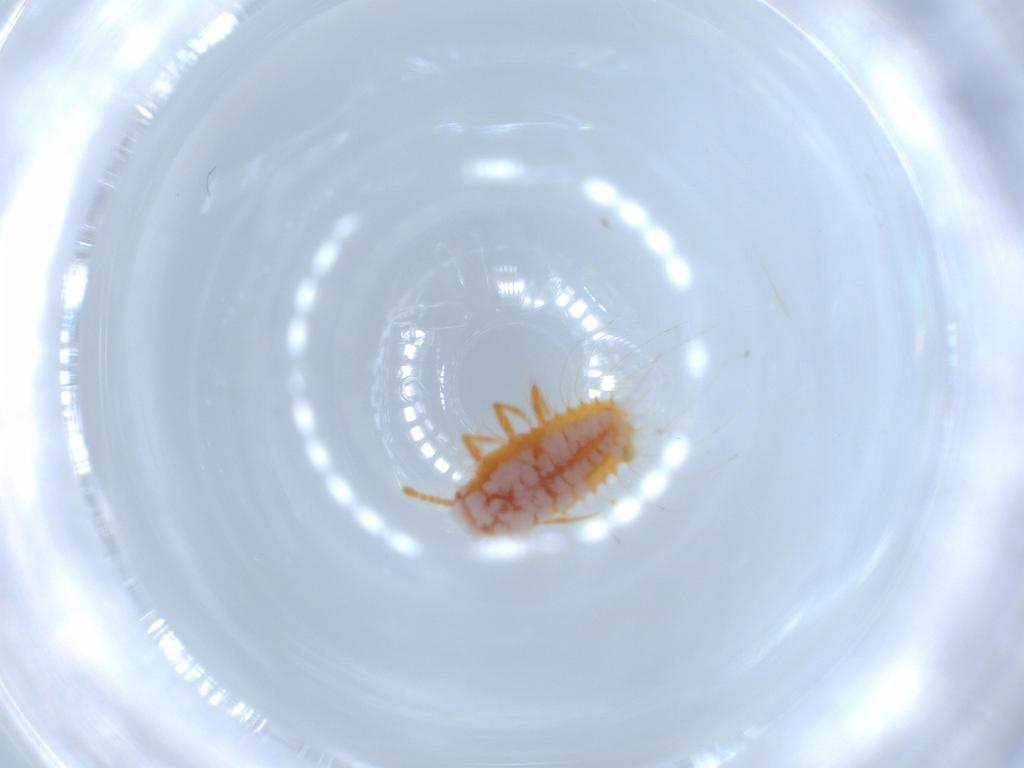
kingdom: Animalia
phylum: Arthropoda
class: Insecta
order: Hemiptera
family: Coccoidea_incertae_sedis
